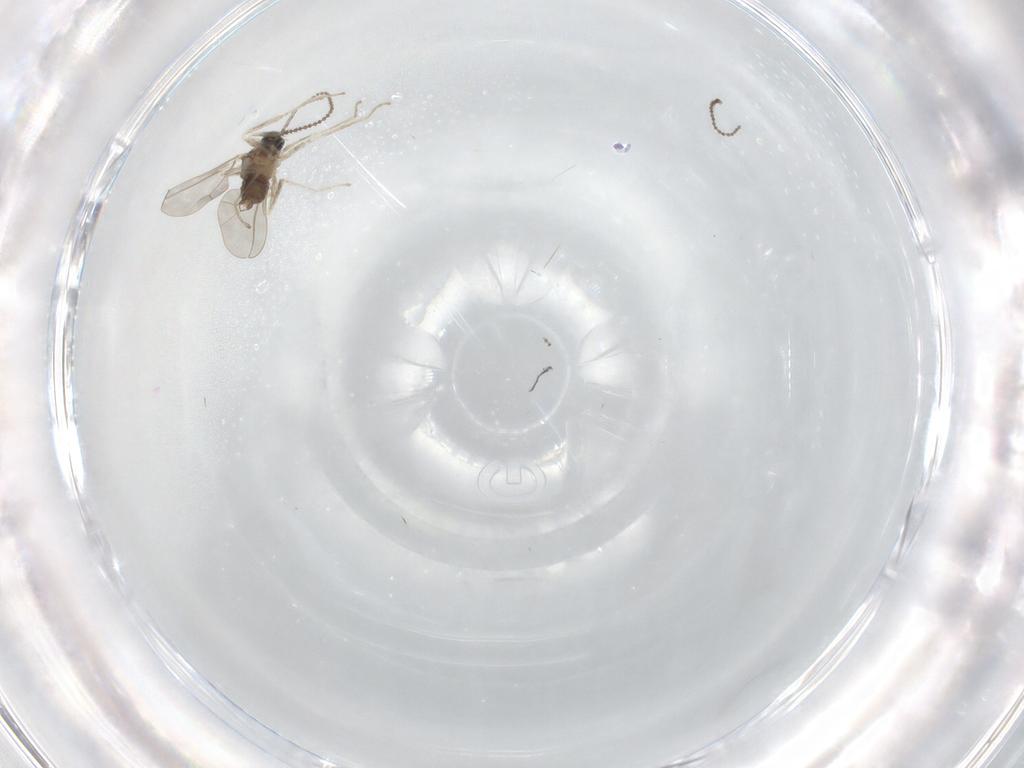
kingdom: Animalia
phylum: Arthropoda
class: Insecta
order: Diptera
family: Cecidomyiidae
